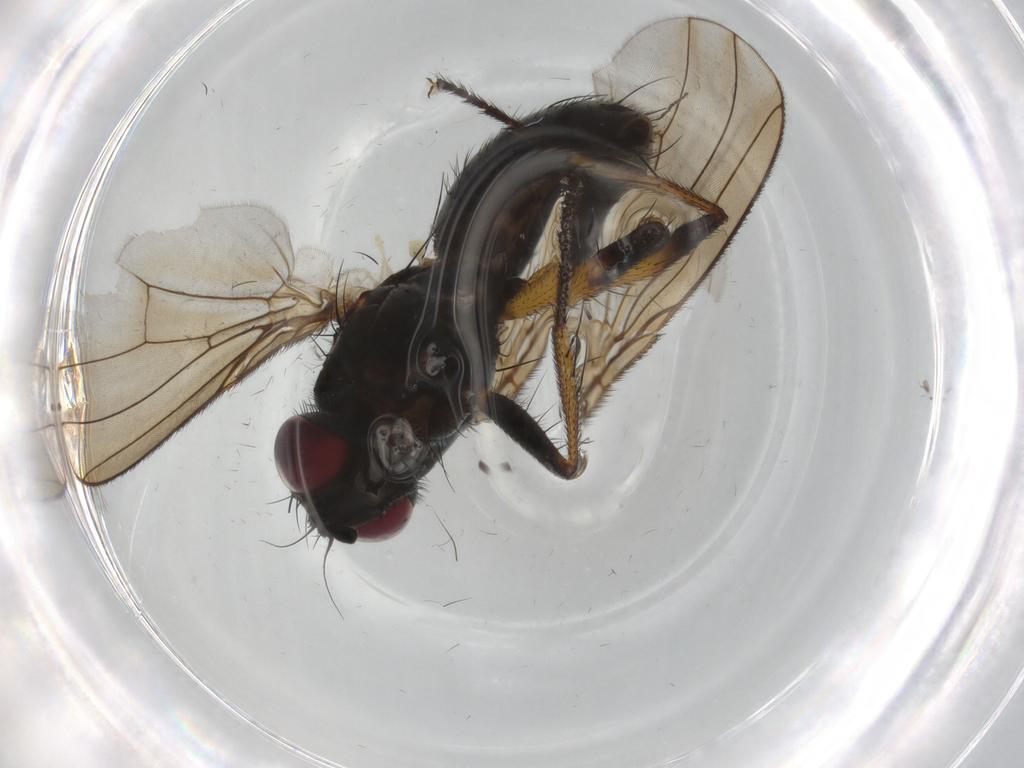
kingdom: Animalia
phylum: Arthropoda
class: Insecta
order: Diptera
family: Muscidae
